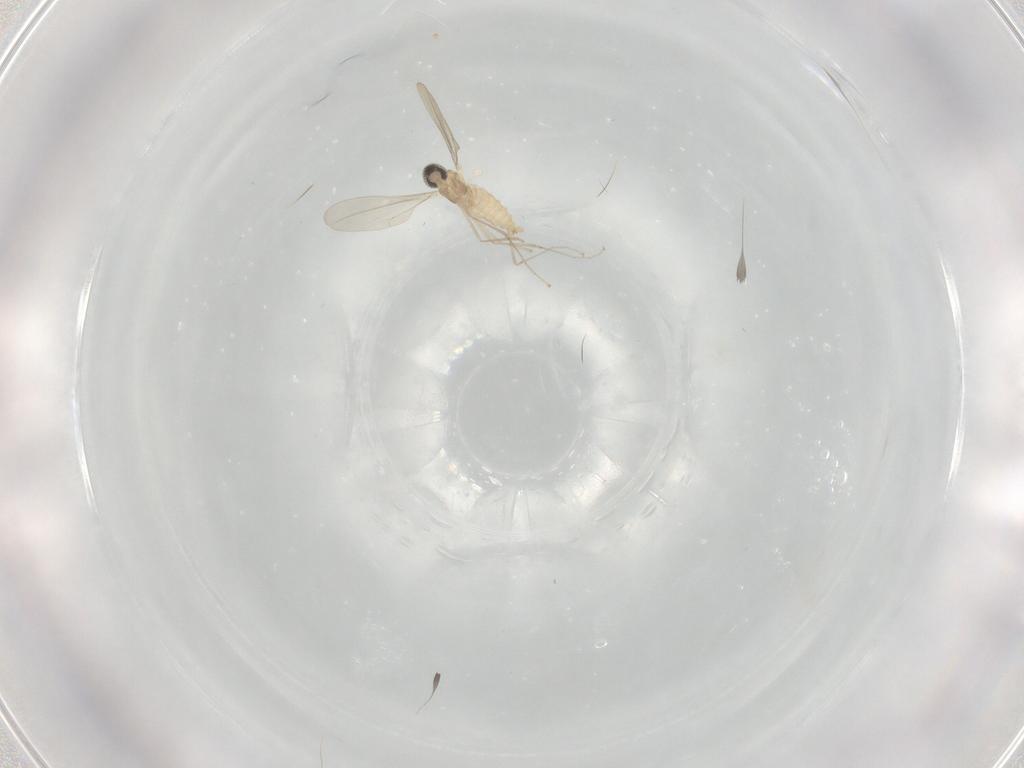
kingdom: Animalia
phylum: Arthropoda
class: Insecta
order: Diptera
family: Cecidomyiidae
